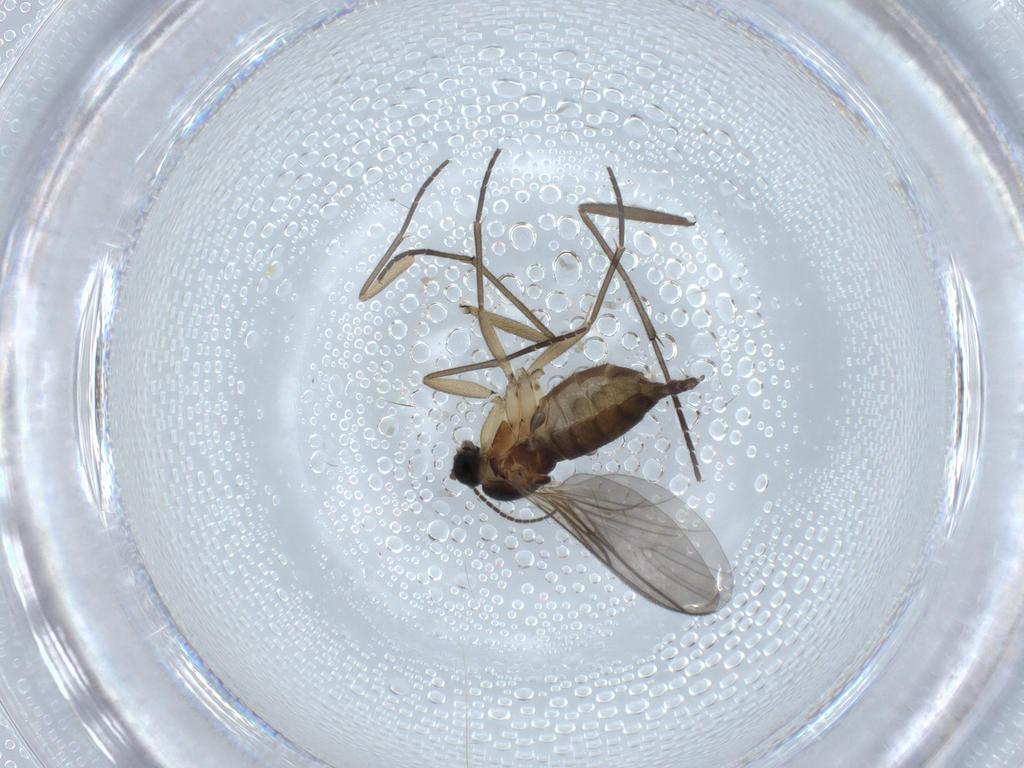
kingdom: Animalia
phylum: Arthropoda
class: Insecta
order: Diptera
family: Sciaridae
